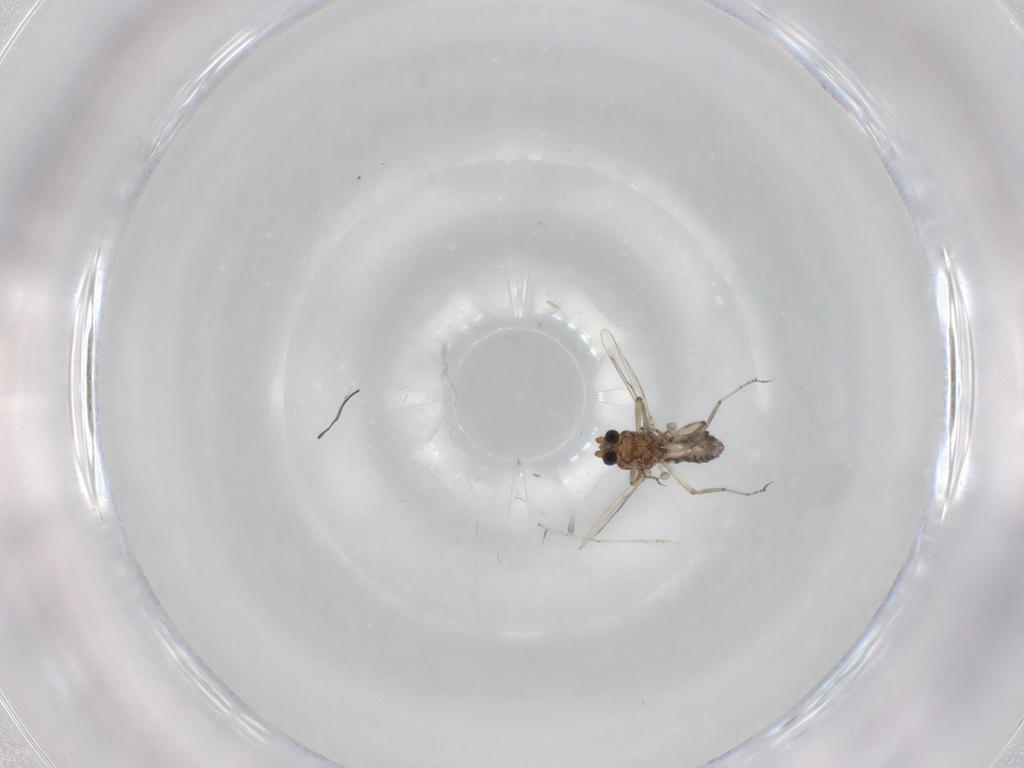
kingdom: Animalia
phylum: Arthropoda
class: Insecta
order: Diptera
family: Ceratopogonidae
